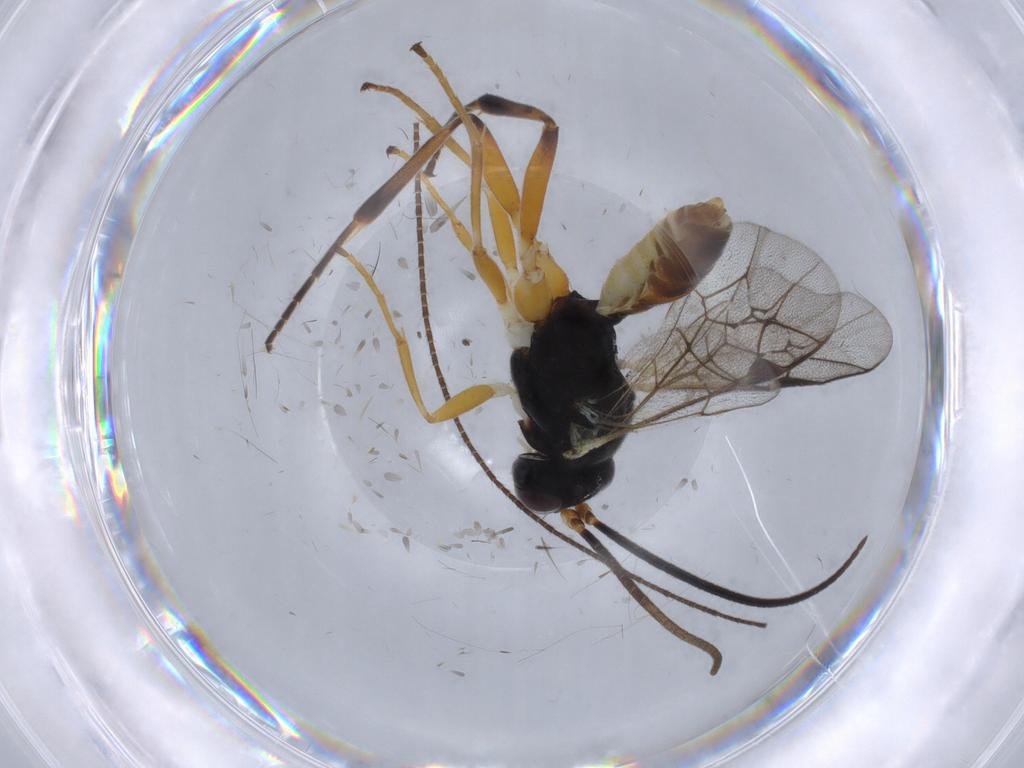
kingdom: Animalia
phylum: Arthropoda
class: Insecta
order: Hymenoptera
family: Ichneumonidae
